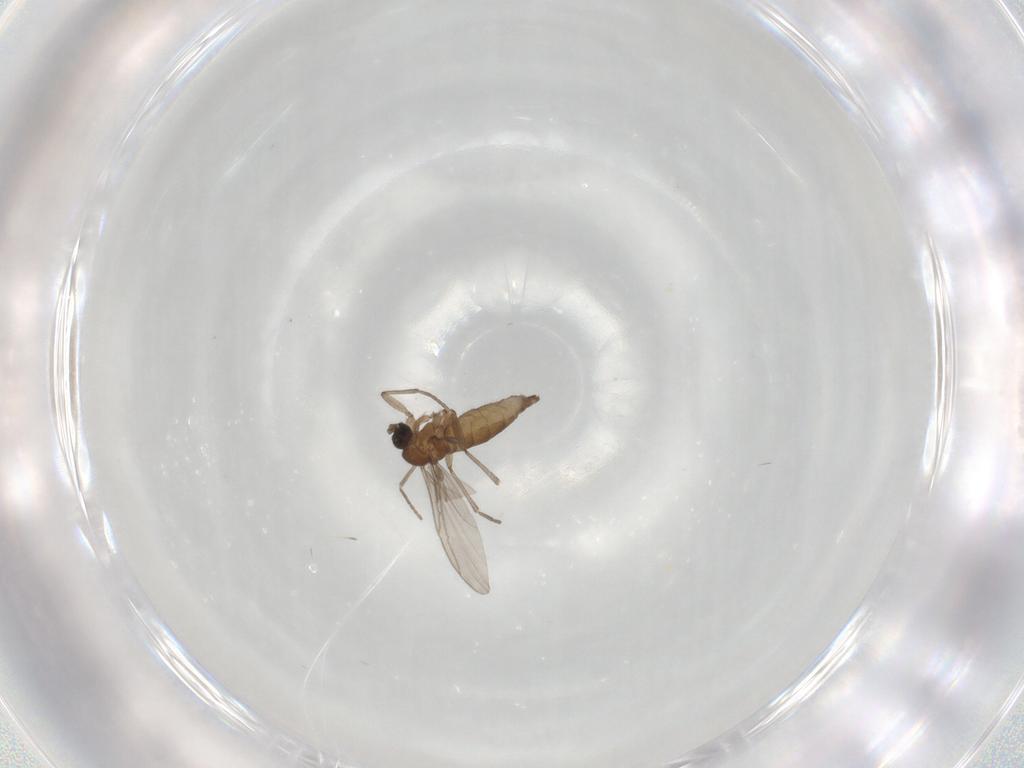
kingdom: Animalia
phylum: Arthropoda
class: Insecta
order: Diptera
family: Sciaridae
